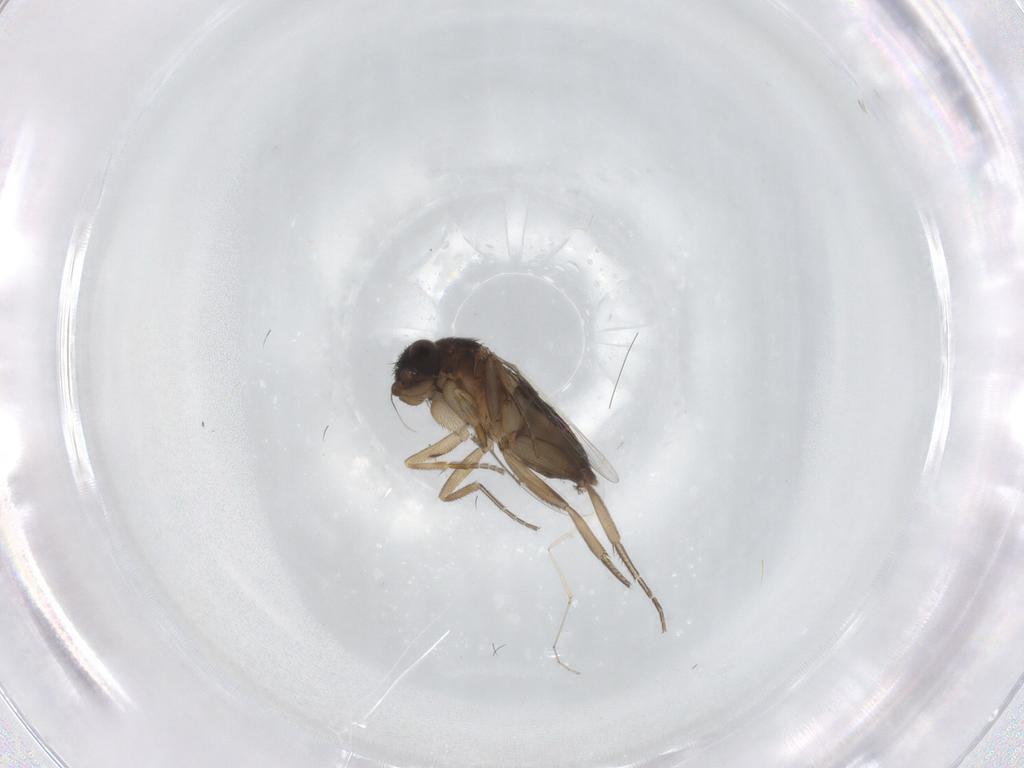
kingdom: Animalia
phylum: Arthropoda
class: Insecta
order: Diptera
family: Phoridae
